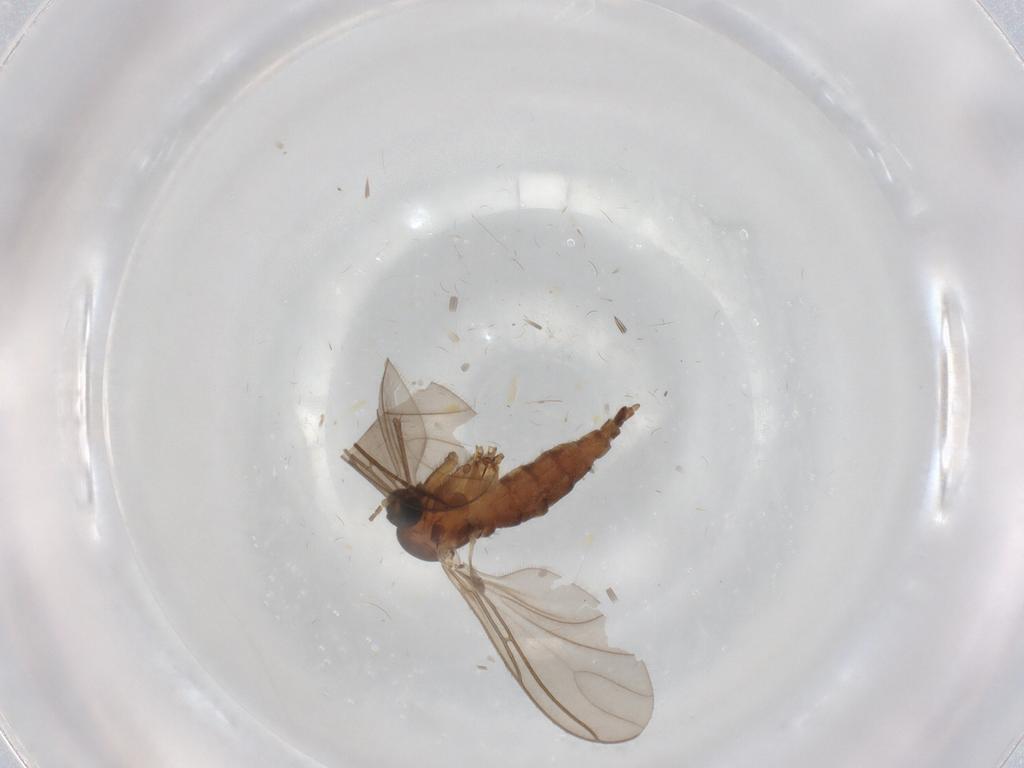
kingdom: Animalia
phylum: Arthropoda
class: Insecta
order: Diptera
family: Sciaridae
